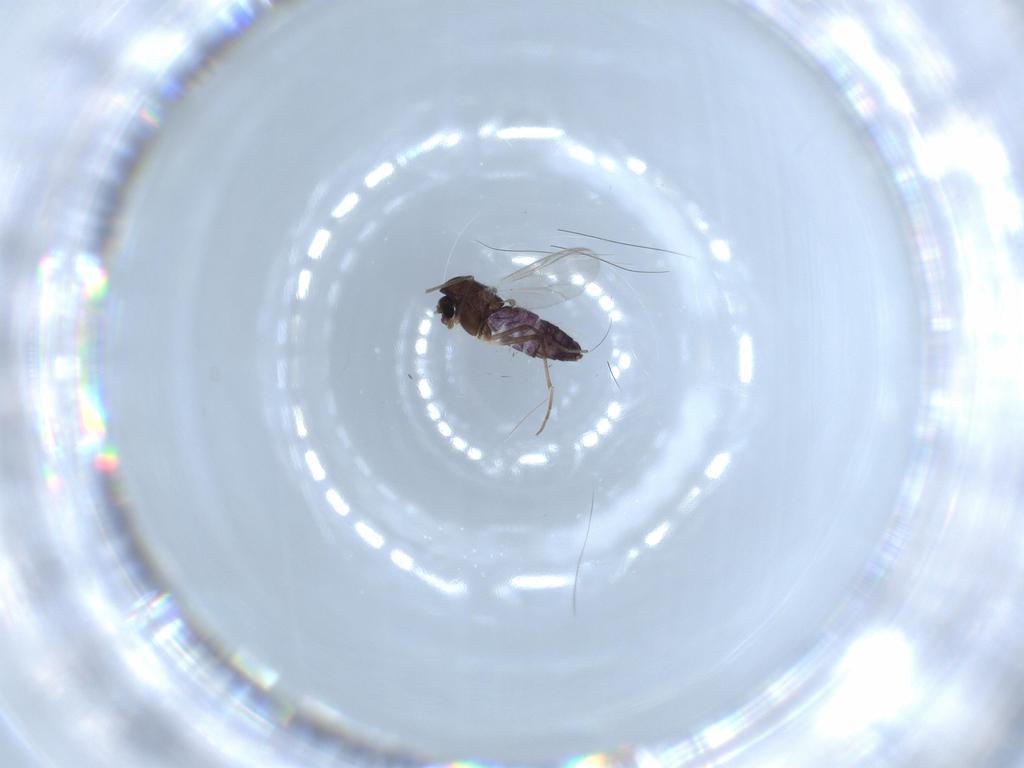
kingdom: Animalia
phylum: Arthropoda
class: Insecta
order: Diptera
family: Chironomidae
